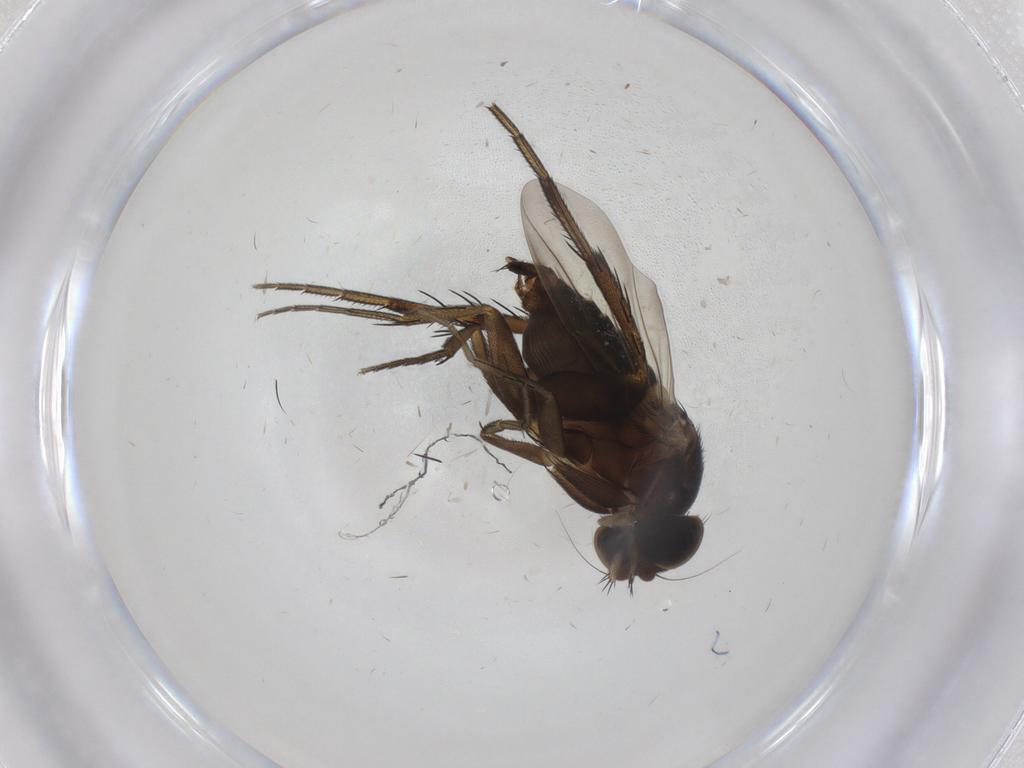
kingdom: Animalia
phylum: Arthropoda
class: Insecta
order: Diptera
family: Phoridae
